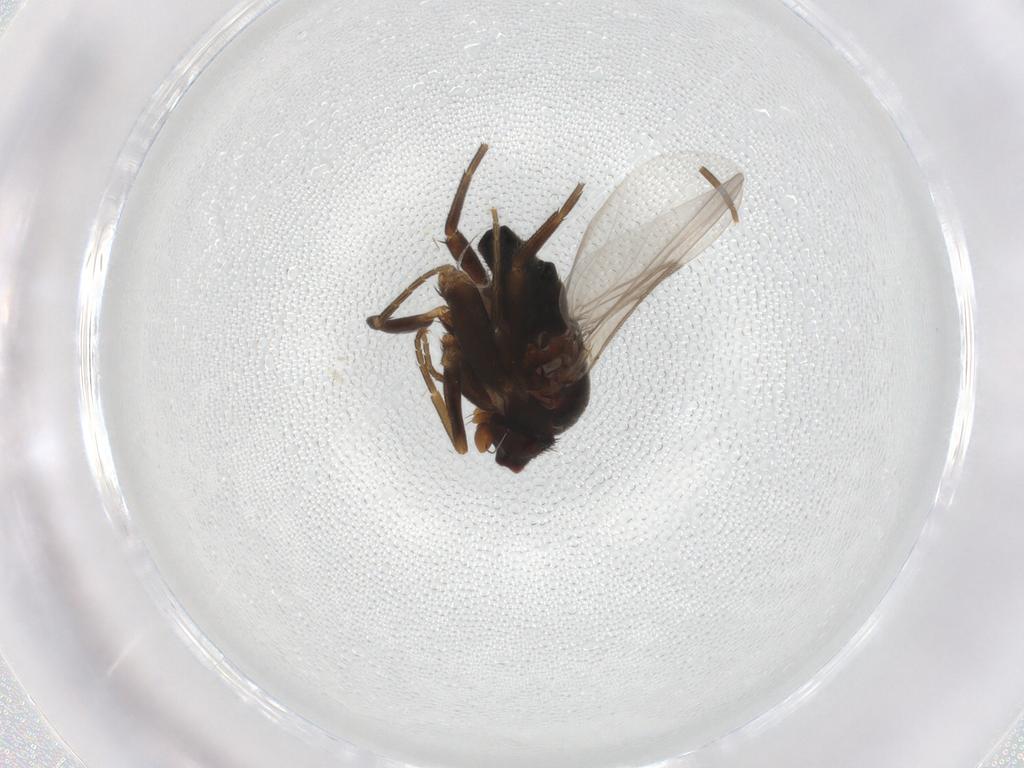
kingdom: Animalia
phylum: Arthropoda
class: Insecta
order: Diptera
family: Phoridae
